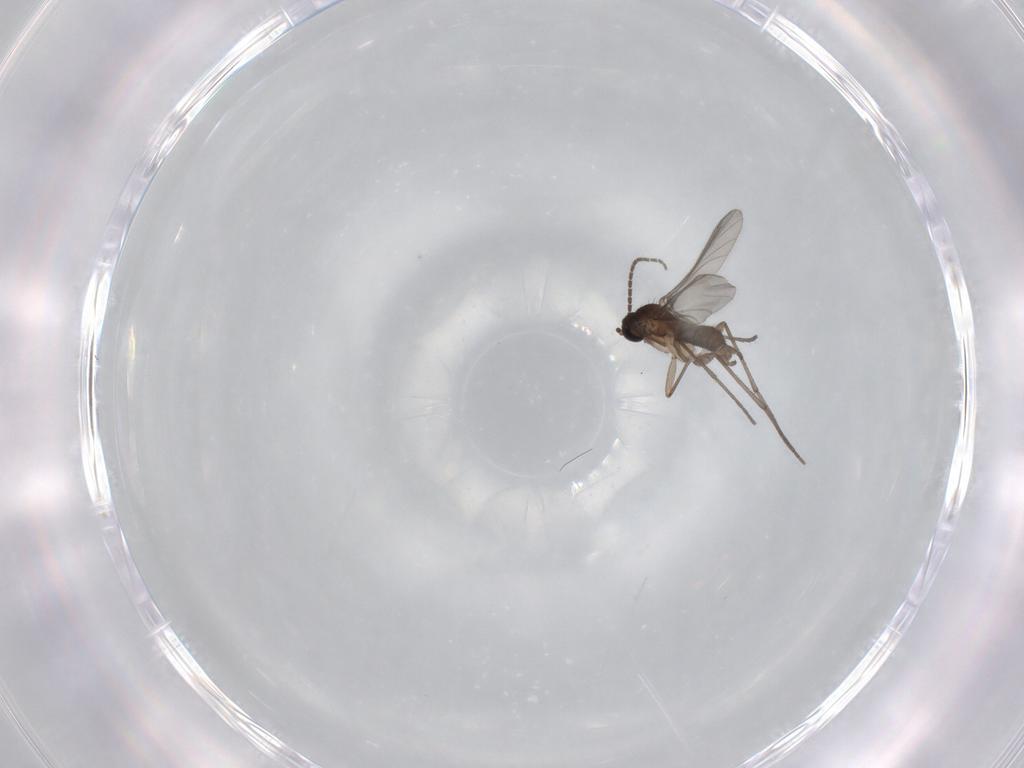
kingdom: Animalia
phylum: Arthropoda
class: Insecta
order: Diptera
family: Sciaridae
